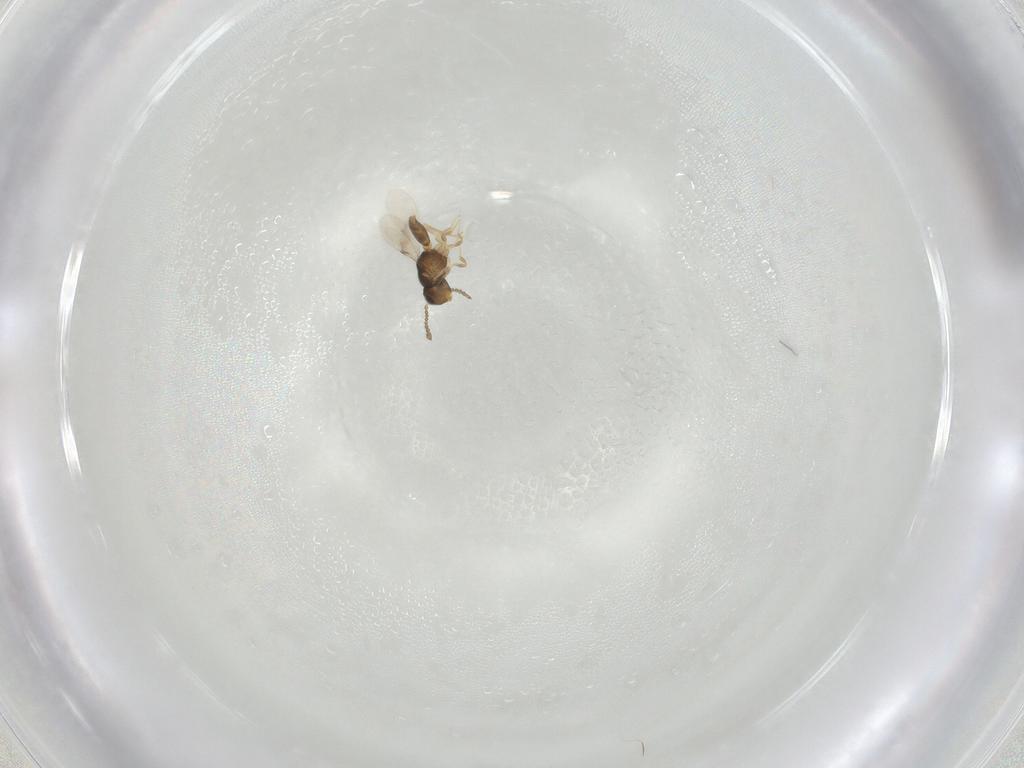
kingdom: Animalia
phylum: Arthropoda
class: Insecta
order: Hymenoptera
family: Scelionidae
